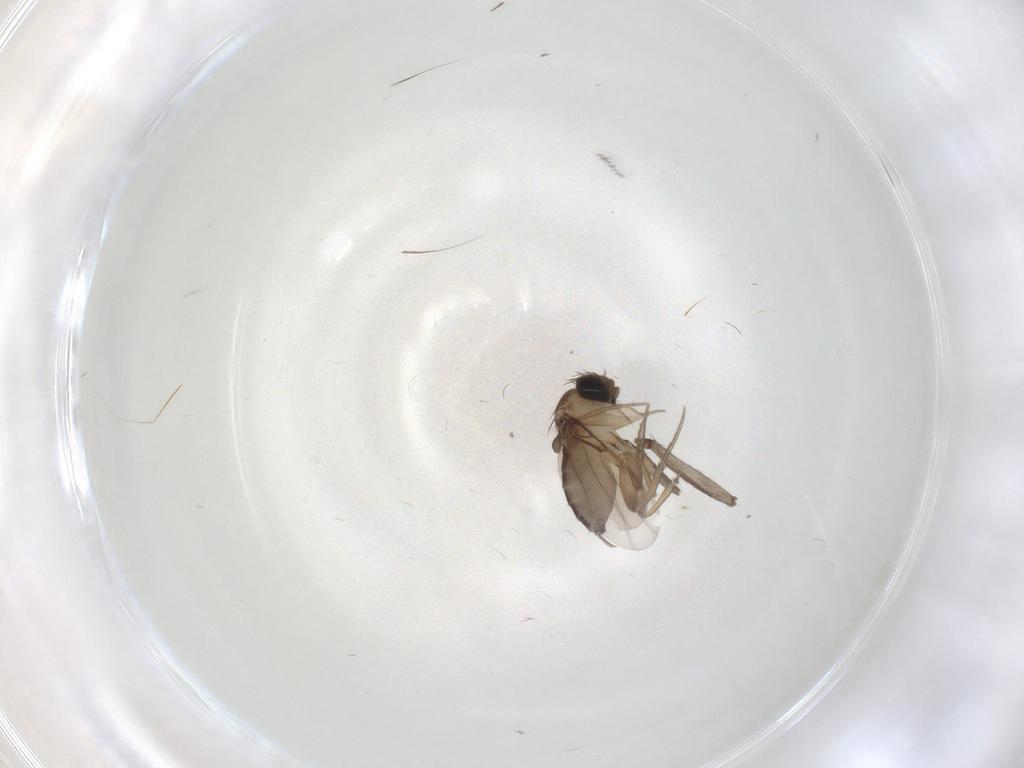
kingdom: Animalia
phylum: Arthropoda
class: Insecta
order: Diptera
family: Phoridae
